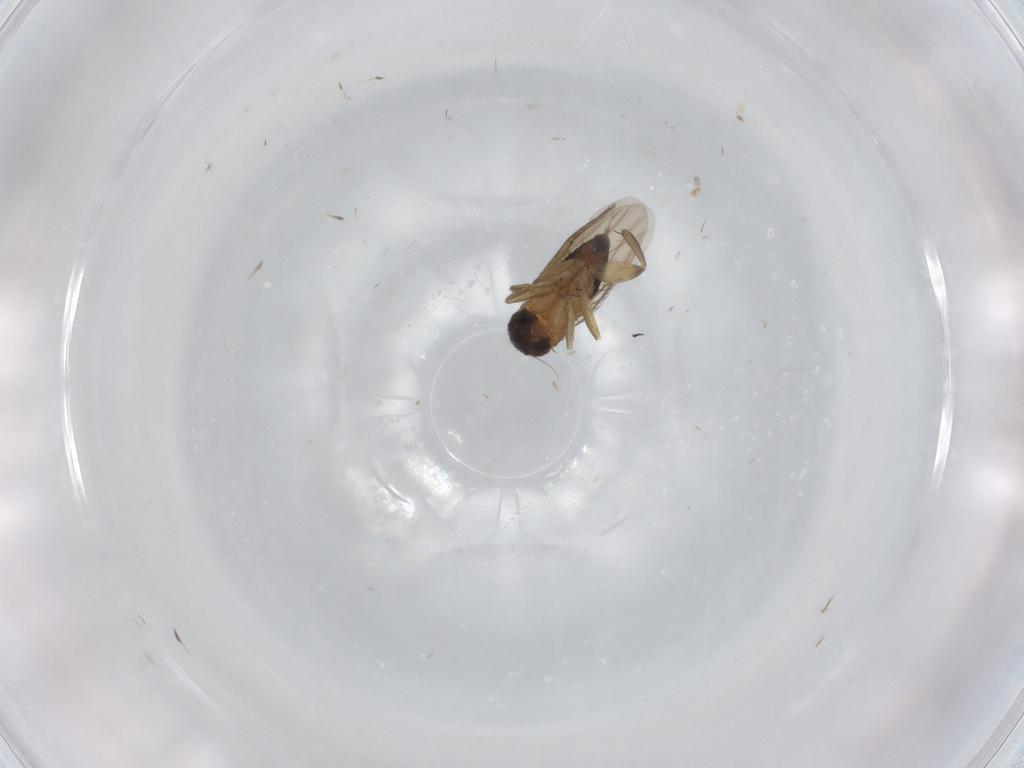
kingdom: Animalia
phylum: Arthropoda
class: Insecta
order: Diptera
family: Phoridae
